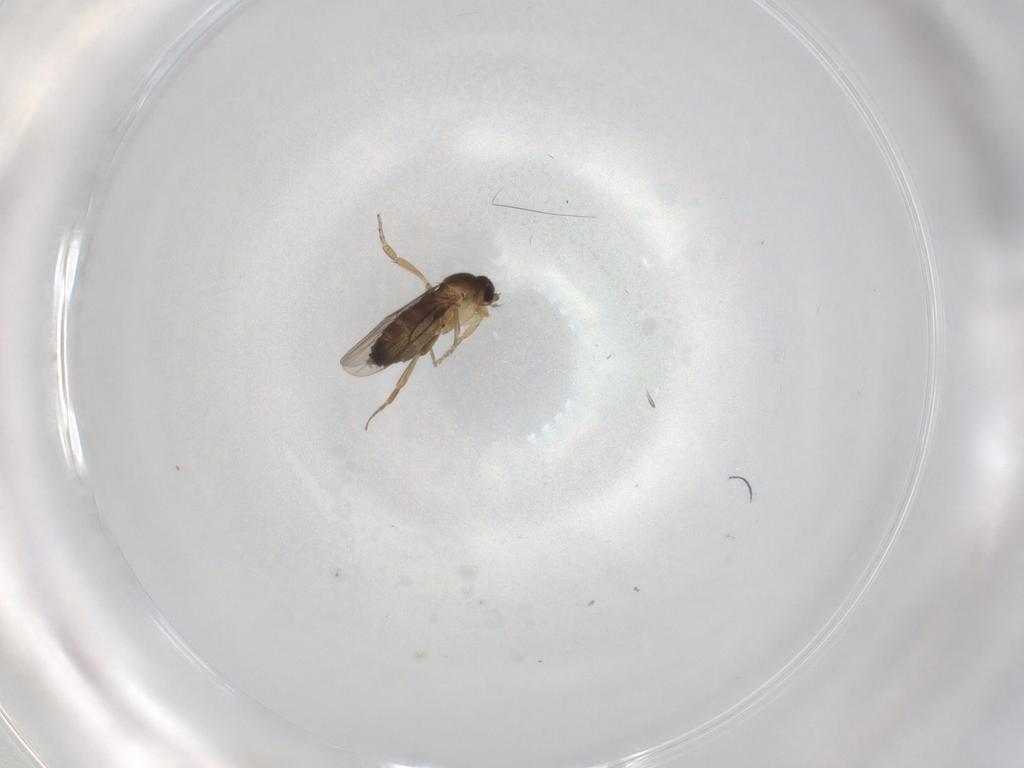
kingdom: Animalia
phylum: Arthropoda
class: Insecta
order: Diptera
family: Phoridae
